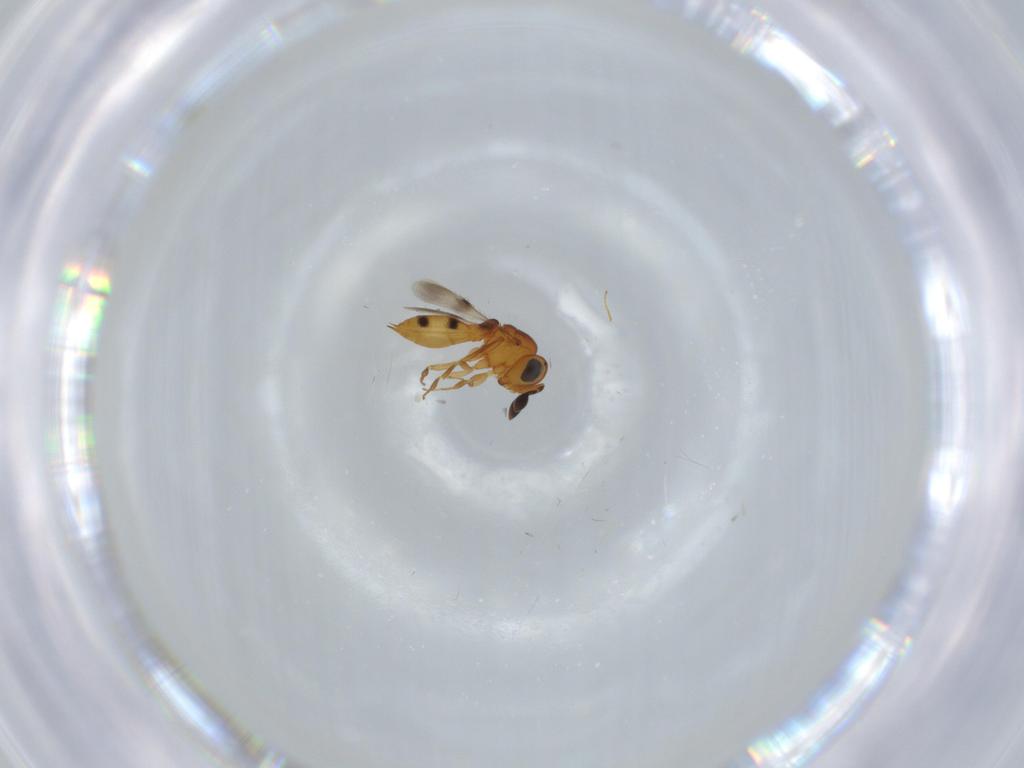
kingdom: Animalia
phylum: Arthropoda
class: Insecta
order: Hymenoptera
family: Scelionidae
